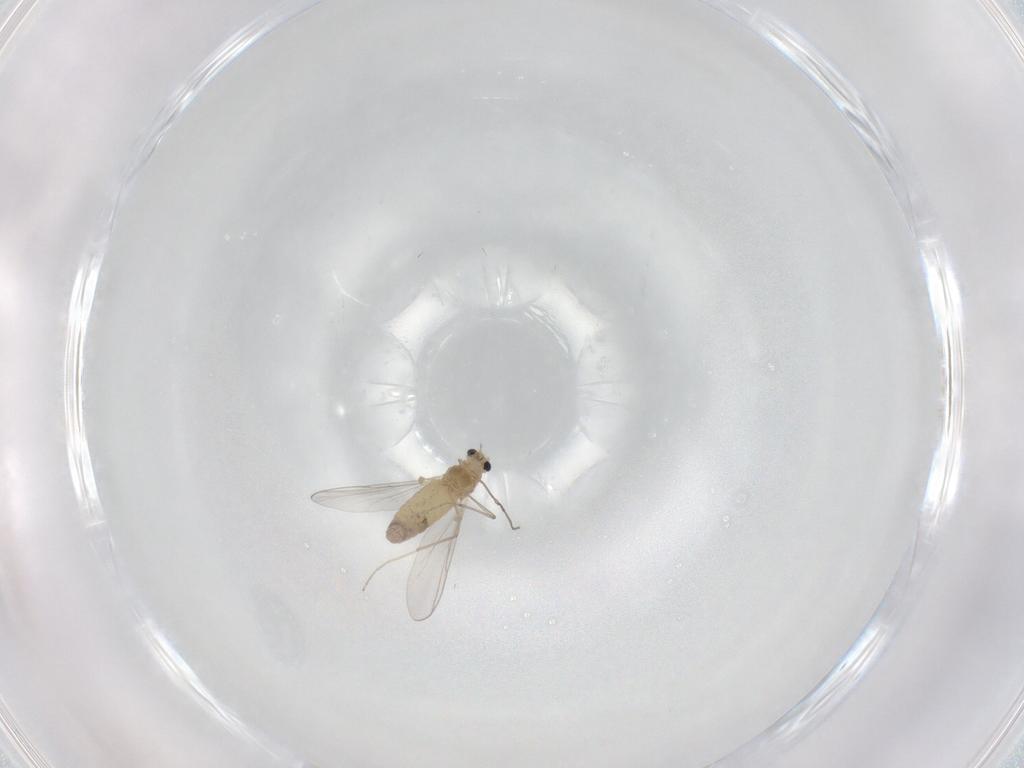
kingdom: Animalia
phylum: Arthropoda
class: Insecta
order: Diptera
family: Chironomidae
